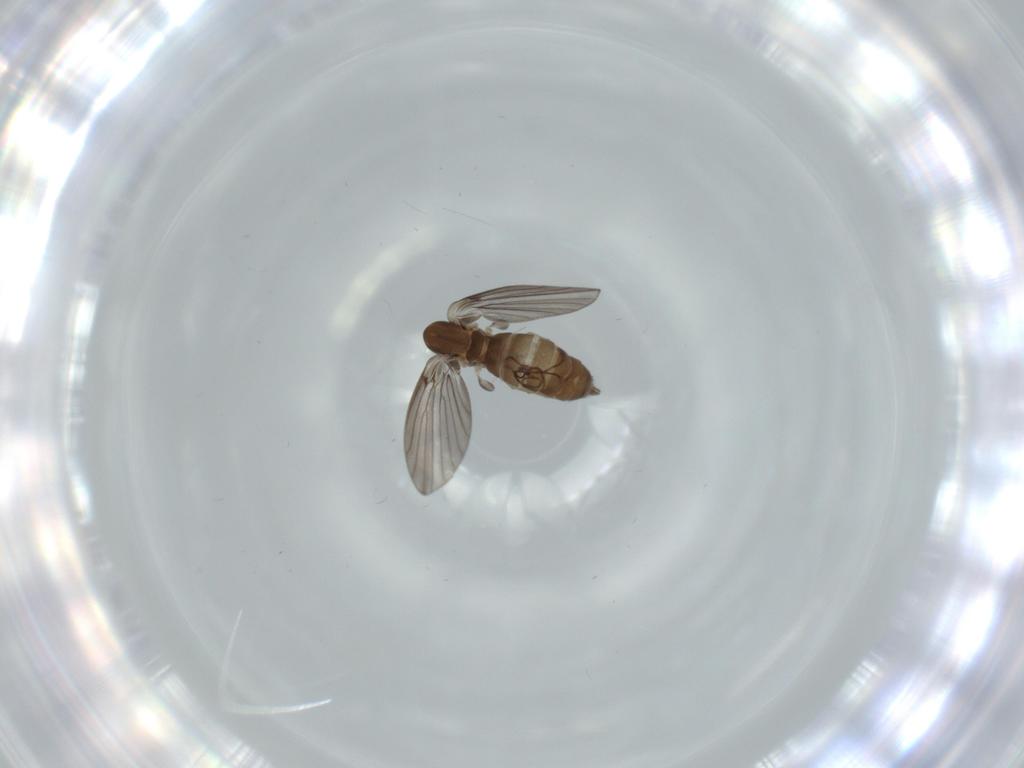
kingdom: Animalia
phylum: Arthropoda
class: Insecta
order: Diptera
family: Psychodidae
